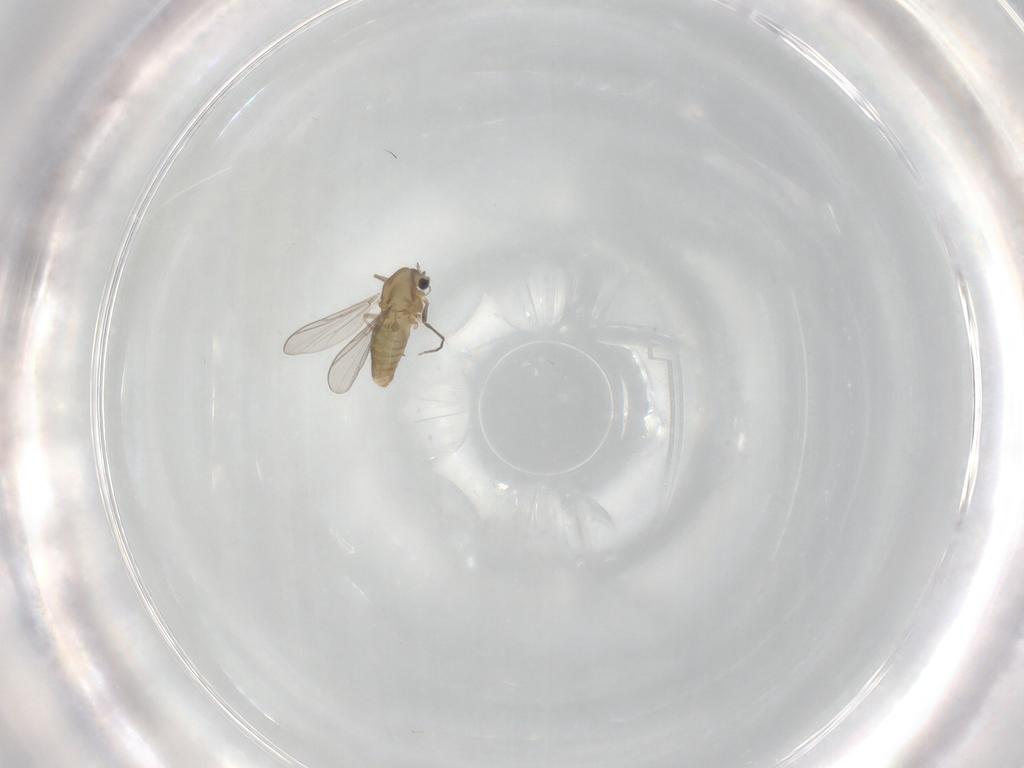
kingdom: Animalia
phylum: Arthropoda
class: Insecta
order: Diptera
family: Cecidomyiidae
